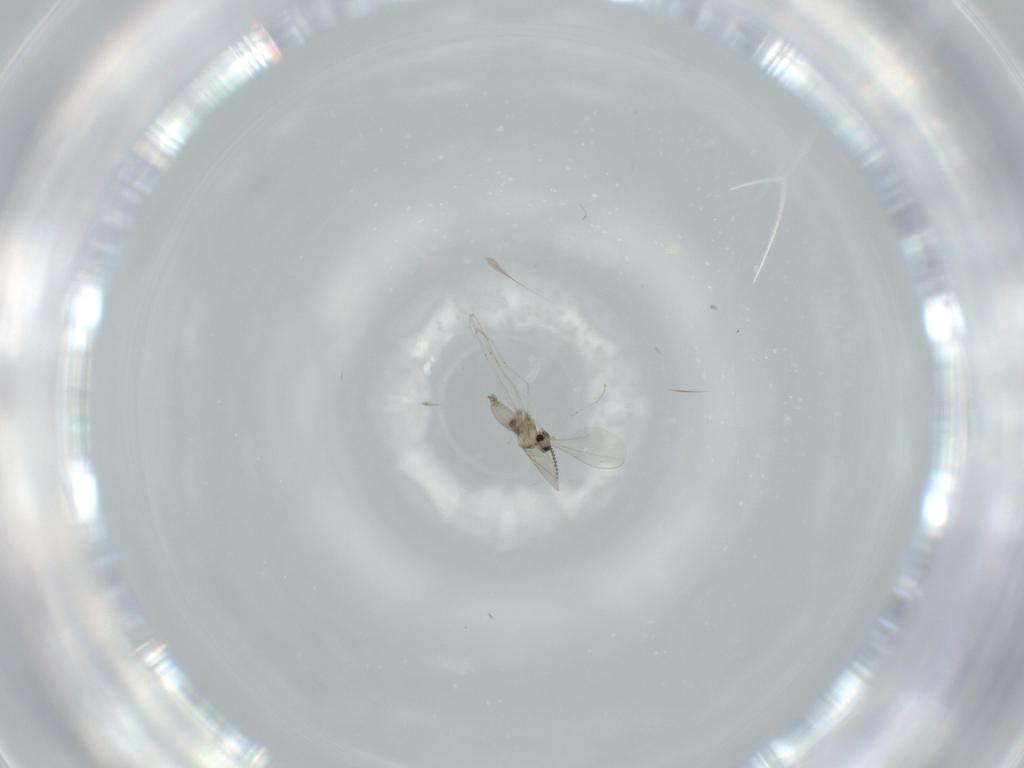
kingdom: Animalia
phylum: Arthropoda
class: Insecta
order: Diptera
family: Cecidomyiidae
